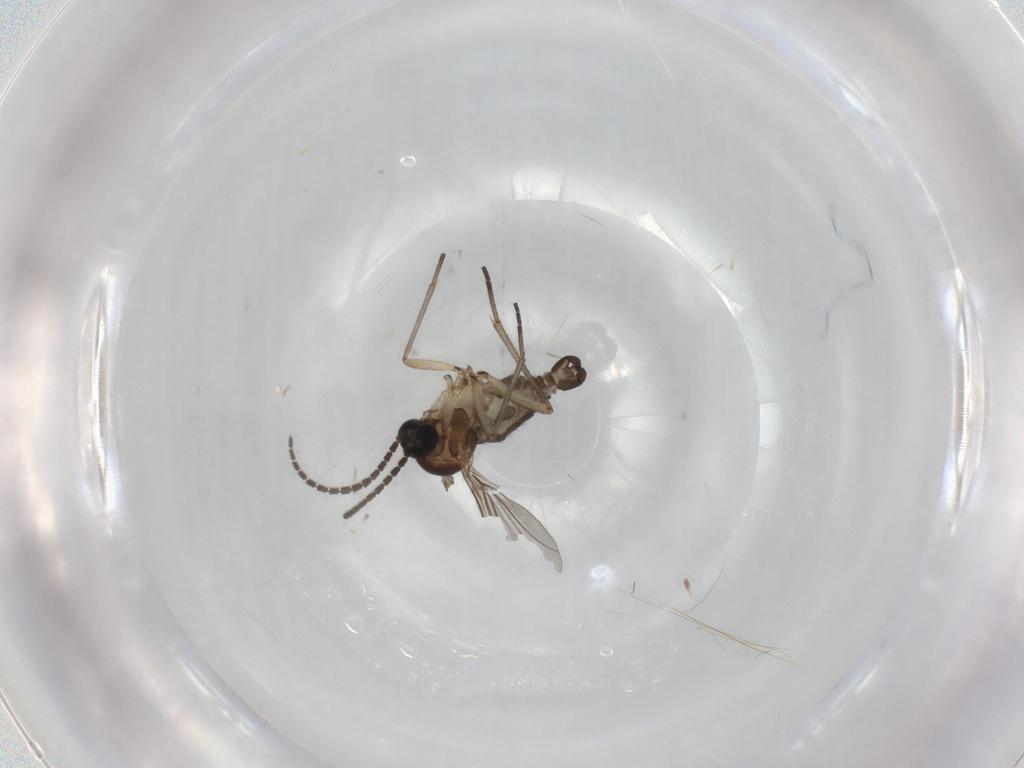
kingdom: Animalia
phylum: Arthropoda
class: Insecta
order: Diptera
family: Sciaridae
